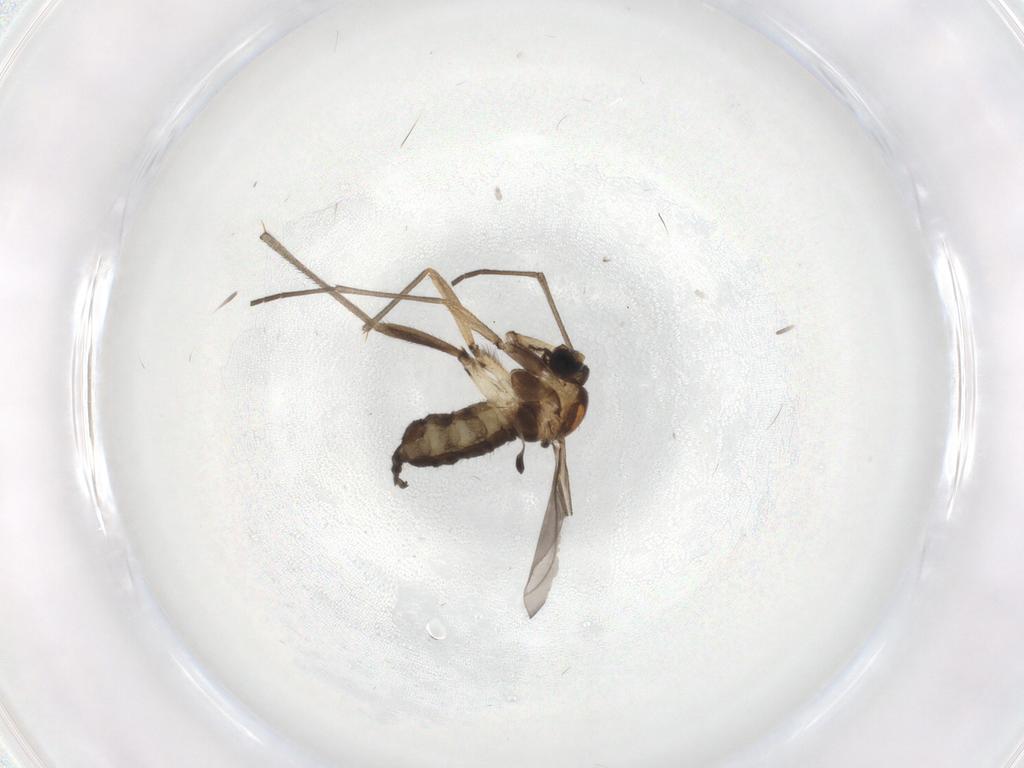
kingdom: Animalia
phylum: Arthropoda
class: Insecta
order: Diptera
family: Sciaridae
